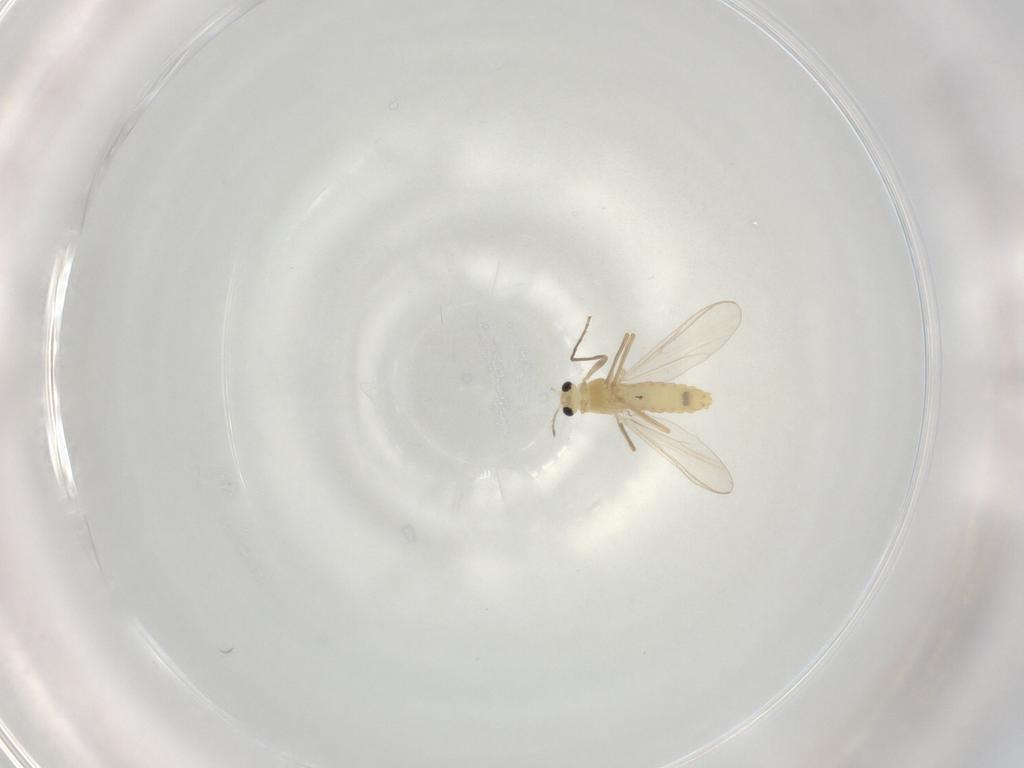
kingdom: Animalia
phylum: Arthropoda
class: Insecta
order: Diptera
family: Chironomidae
